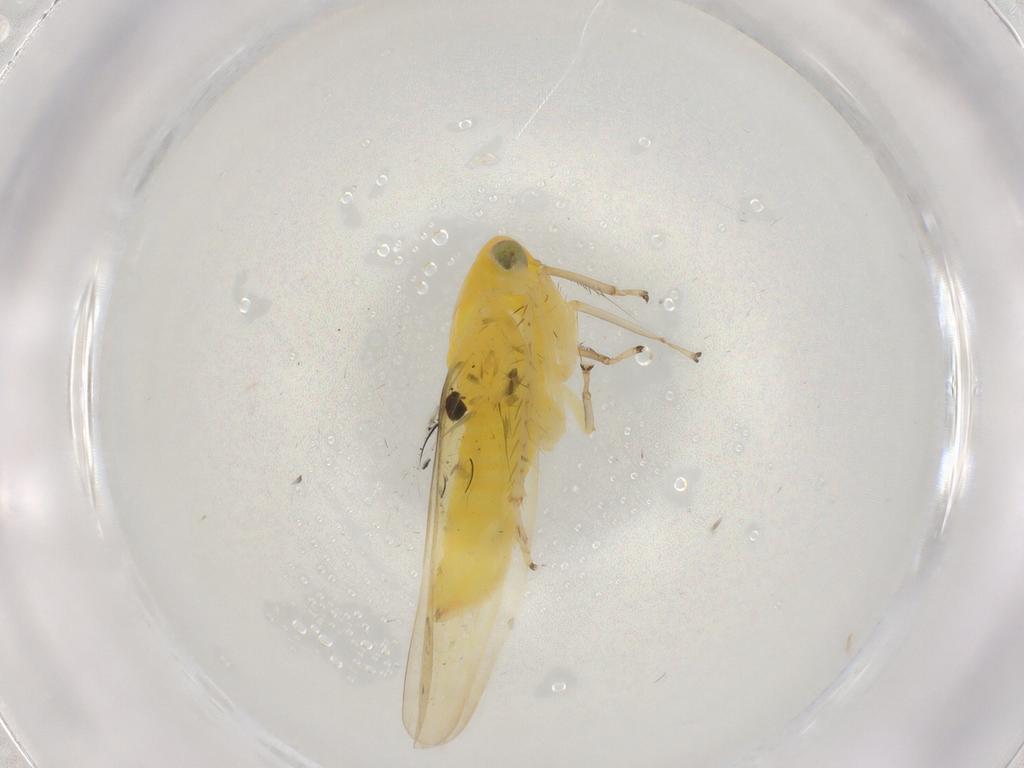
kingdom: Animalia
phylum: Arthropoda
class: Insecta
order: Hemiptera
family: Cicadellidae
